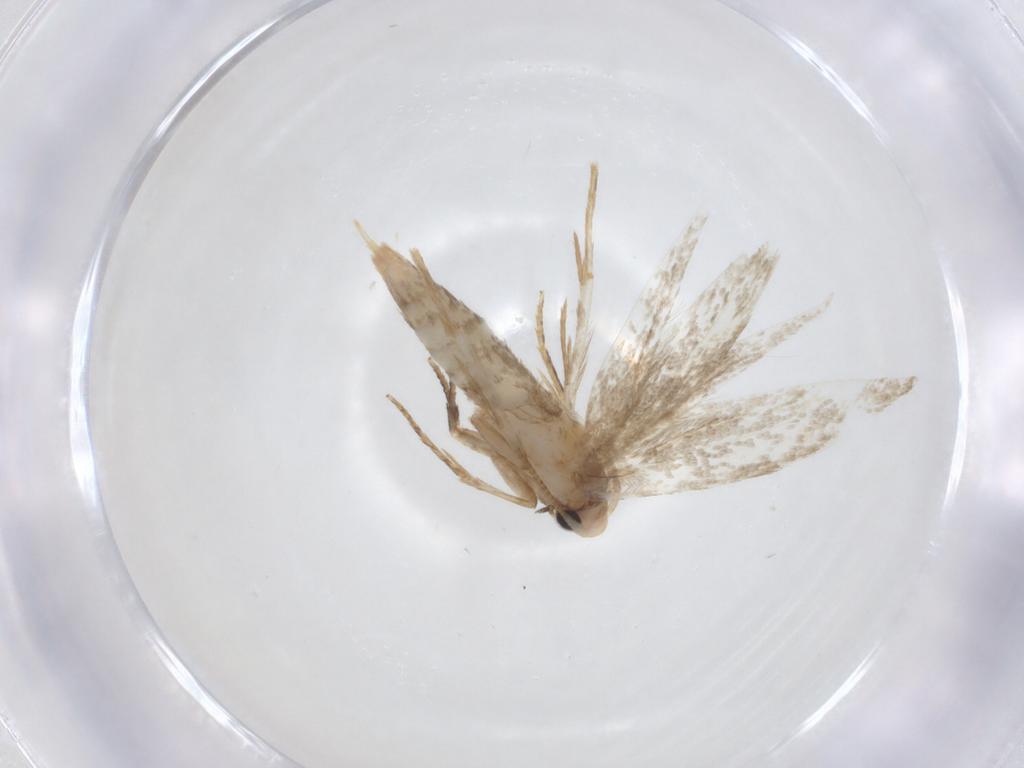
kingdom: Animalia
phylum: Arthropoda
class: Insecta
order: Lepidoptera
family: Tineidae
